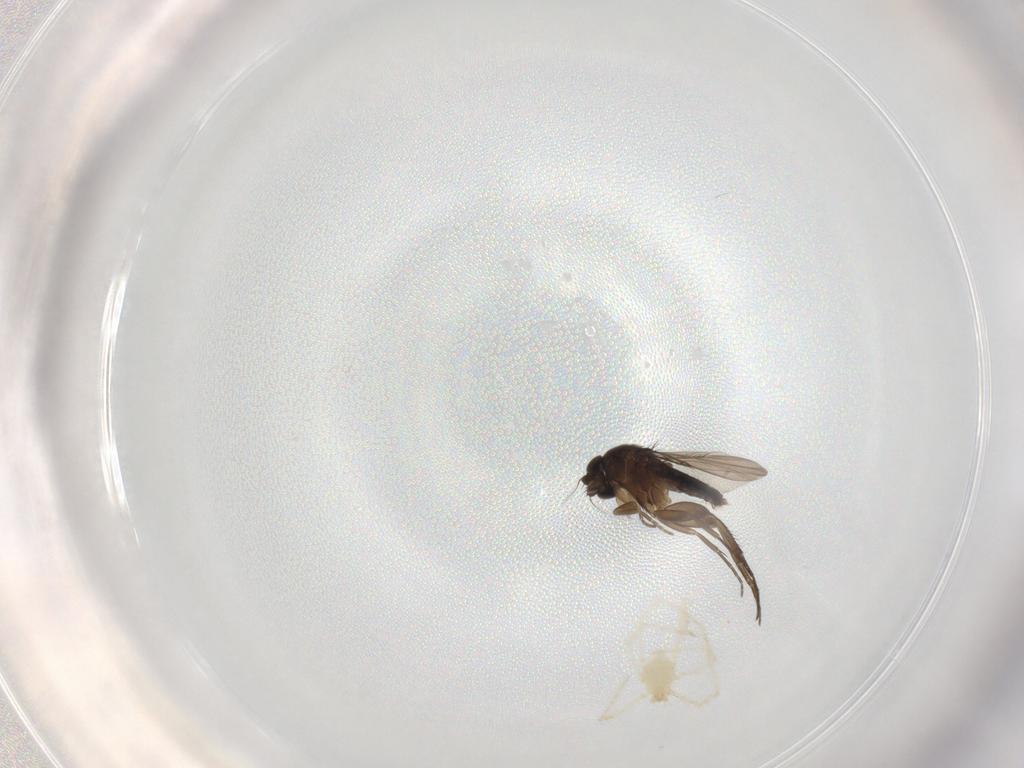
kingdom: Animalia
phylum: Arthropoda
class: Insecta
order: Diptera
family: Phoridae
